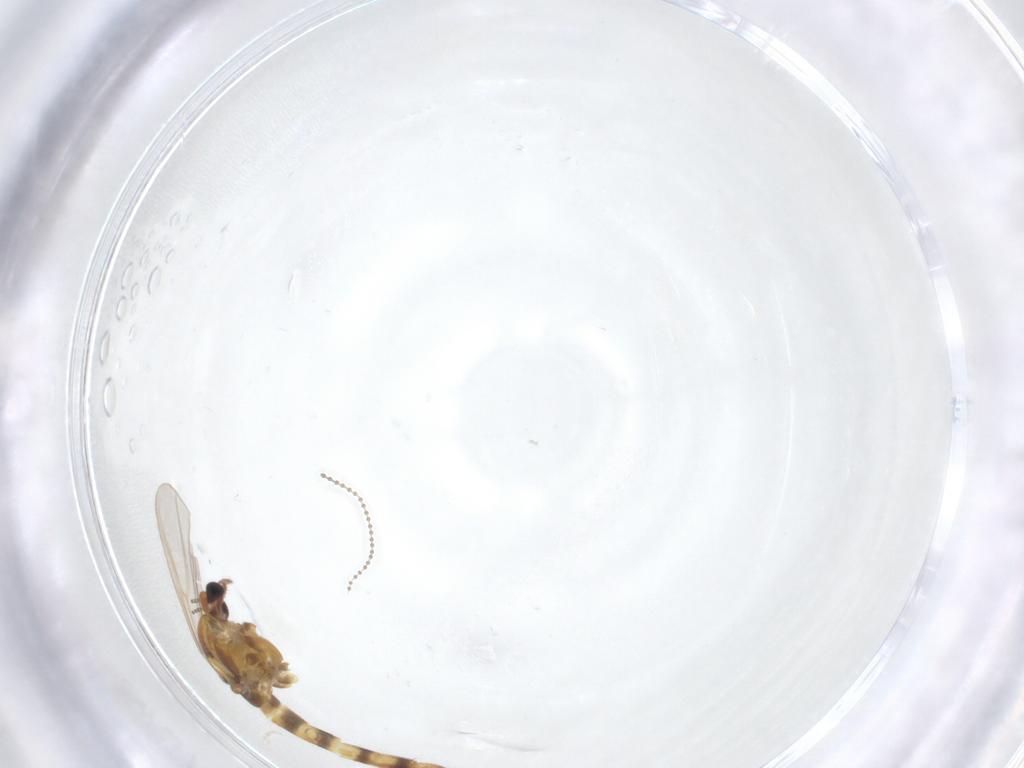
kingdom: Animalia
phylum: Arthropoda
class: Insecta
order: Diptera
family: Chironomidae
